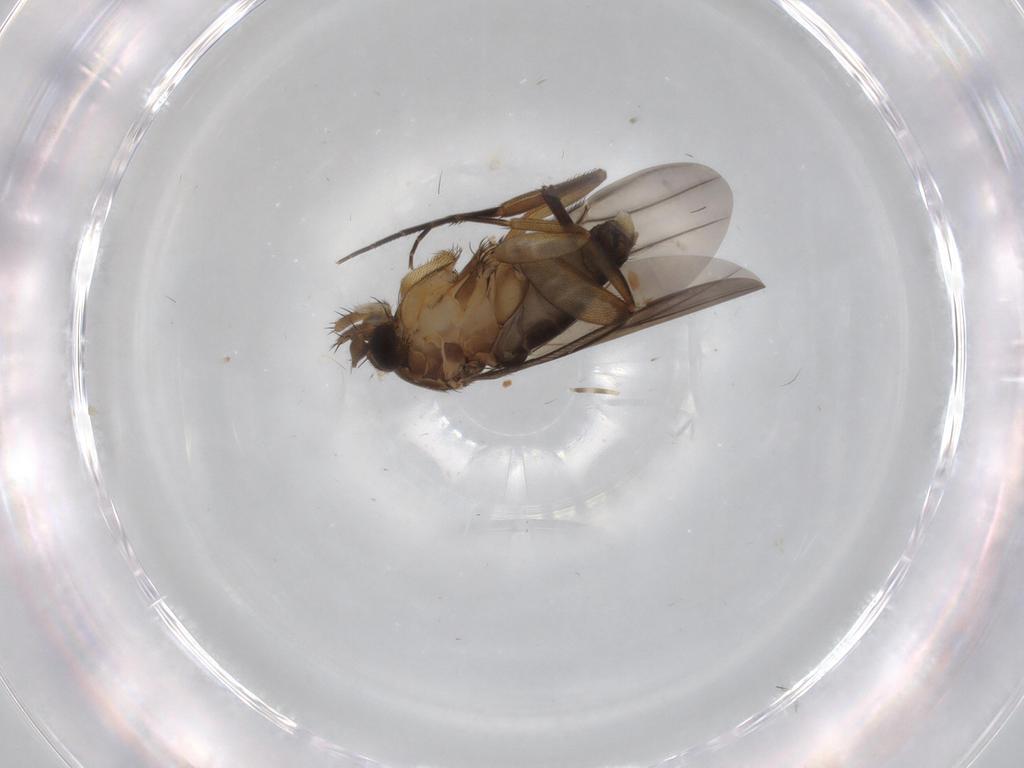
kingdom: Animalia
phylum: Arthropoda
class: Insecta
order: Diptera
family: Phoridae
